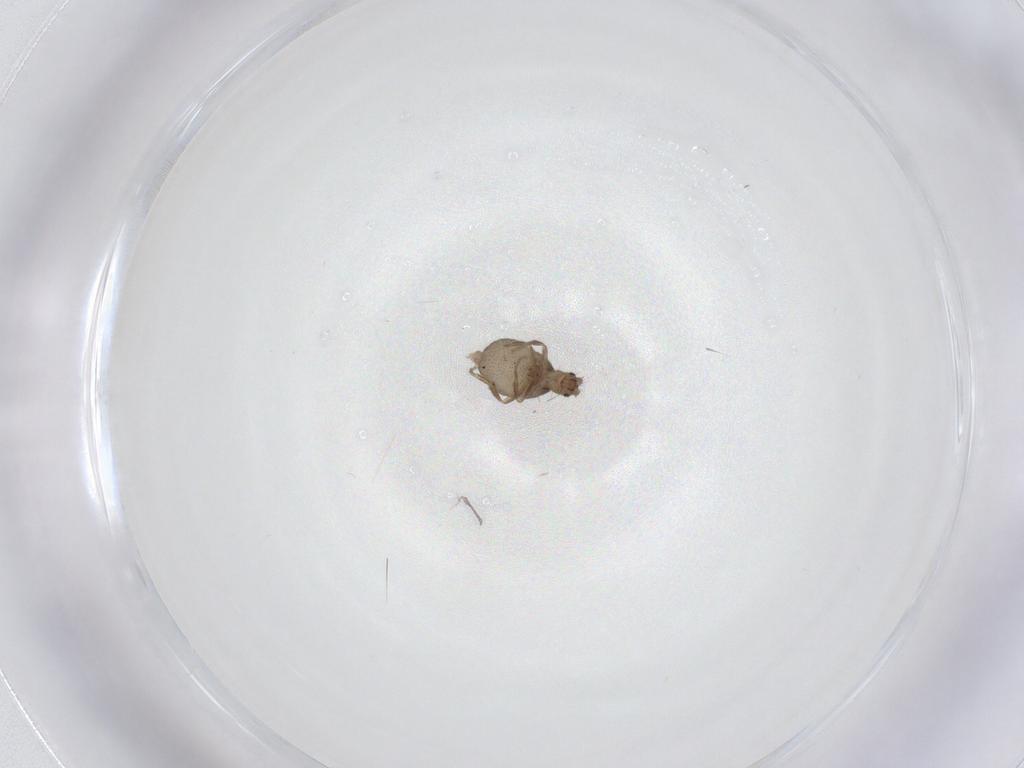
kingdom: Animalia
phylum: Arthropoda
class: Insecta
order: Diptera
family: Phoridae
